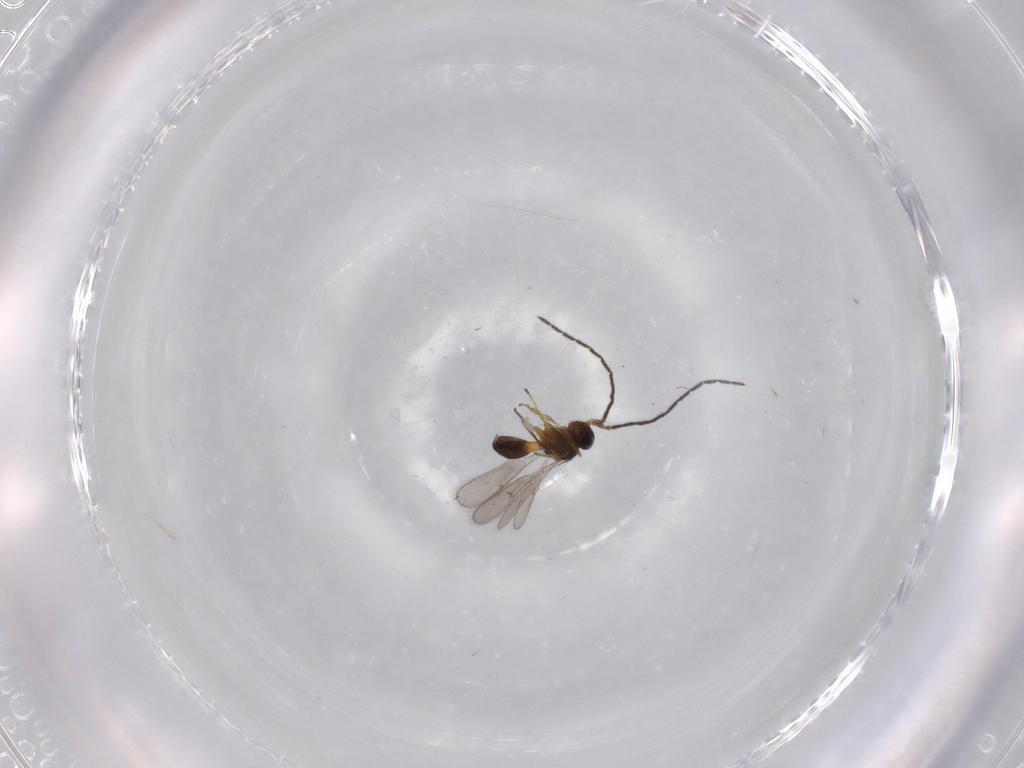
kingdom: Animalia
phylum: Arthropoda
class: Insecta
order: Hymenoptera
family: Scelionidae
